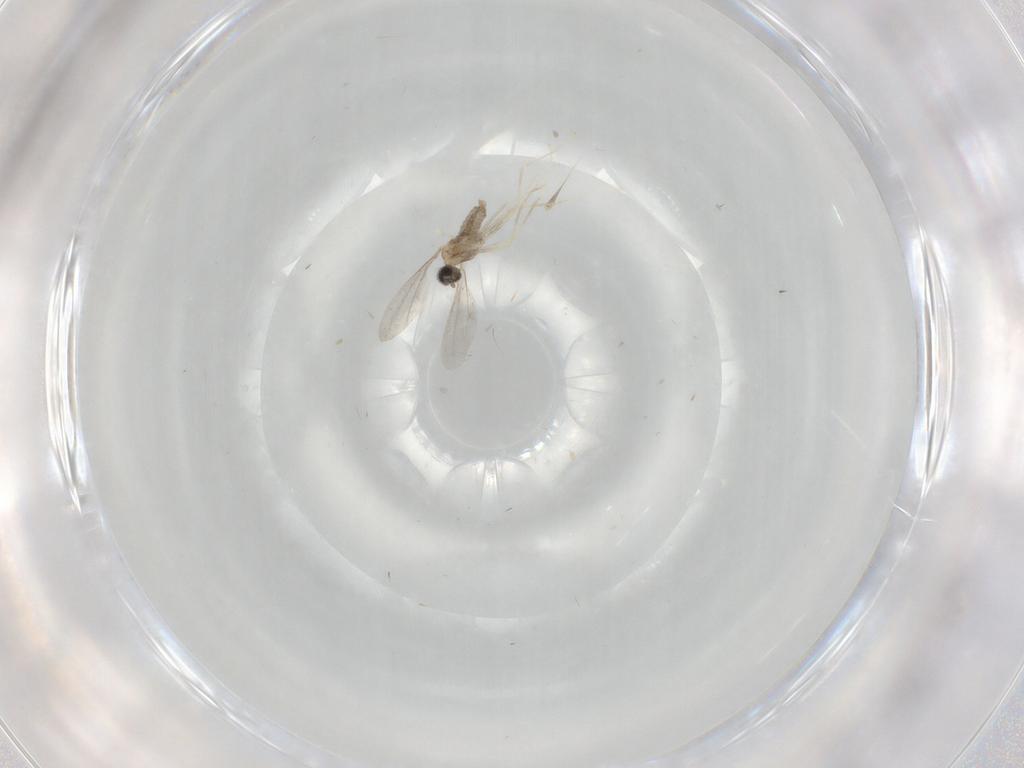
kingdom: Animalia
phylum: Arthropoda
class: Insecta
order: Diptera
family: Cecidomyiidae
